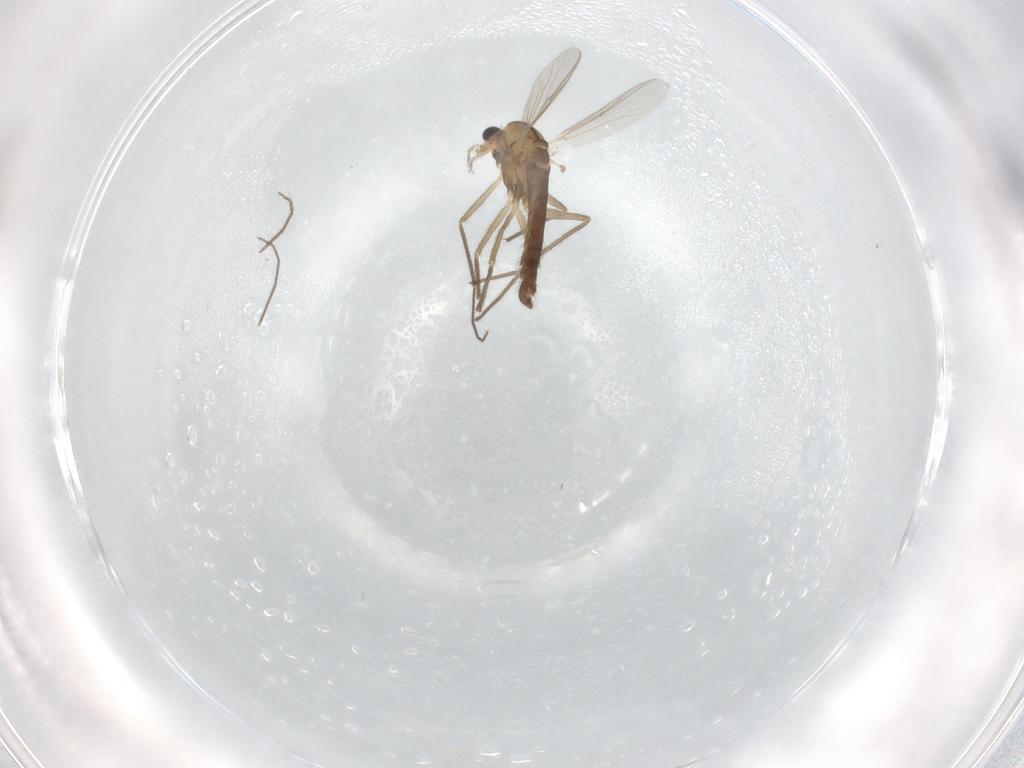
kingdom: Animalia
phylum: Arthropoda
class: Insecta
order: Diptera
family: Chironomidae
